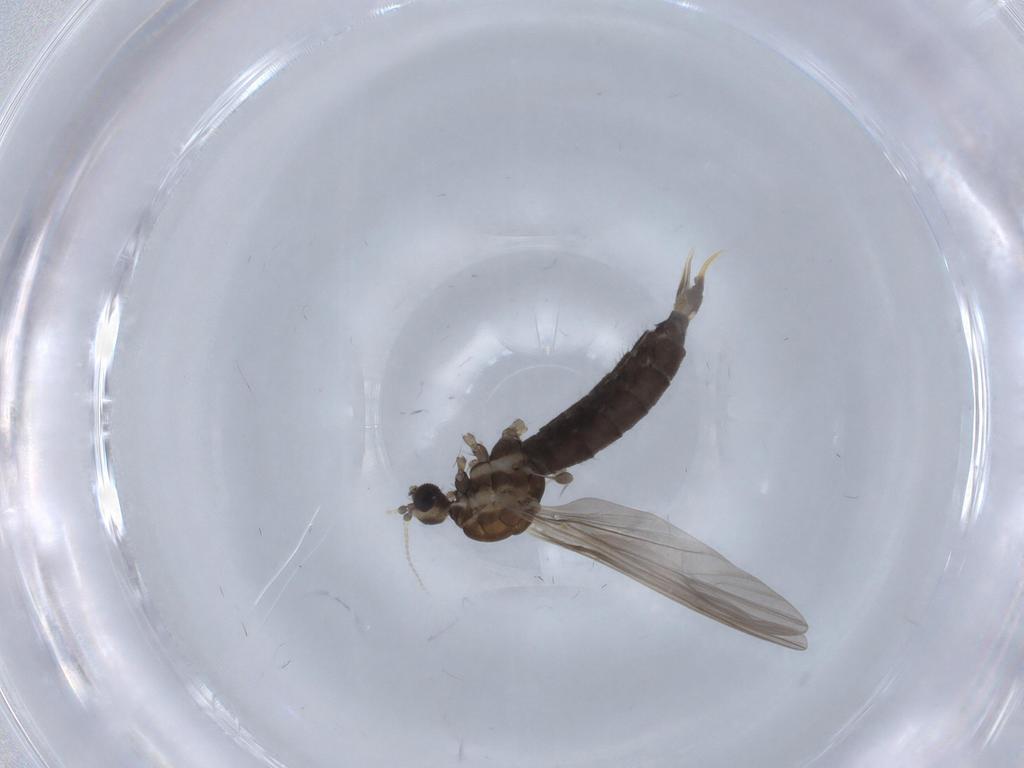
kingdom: Animalia
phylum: Arthropoda
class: Insecta
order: Diptera
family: Limoniidae
